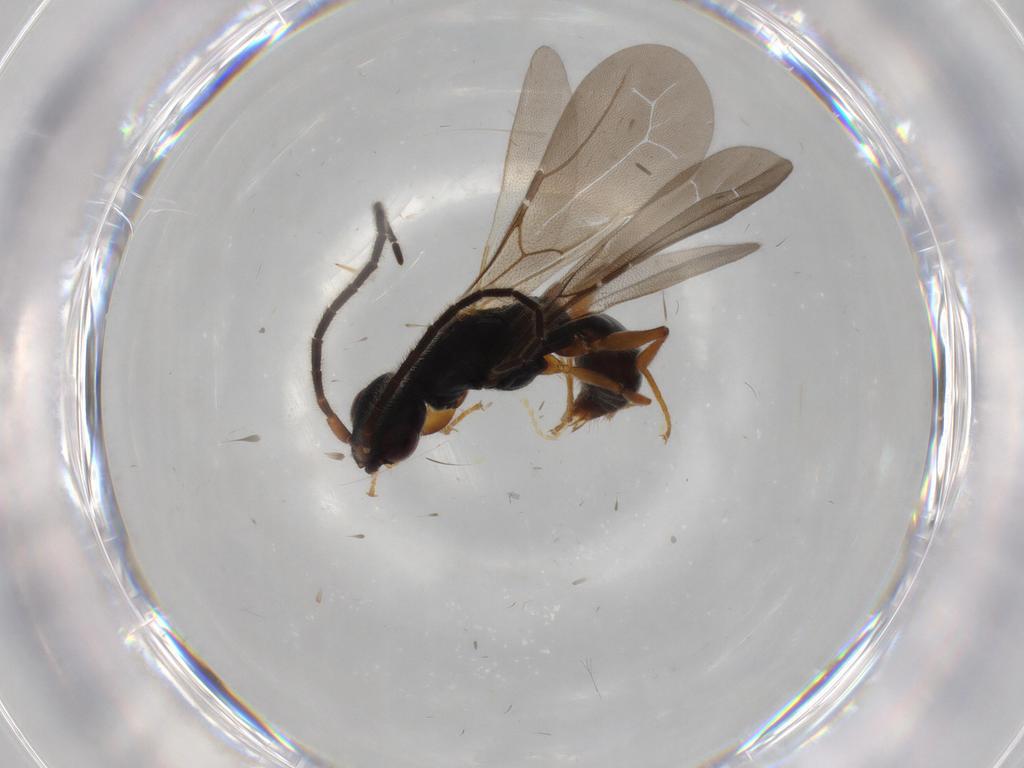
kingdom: Animalia
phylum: Arthropoda
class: Insecta
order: Hymenoptera
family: Bethylidae
